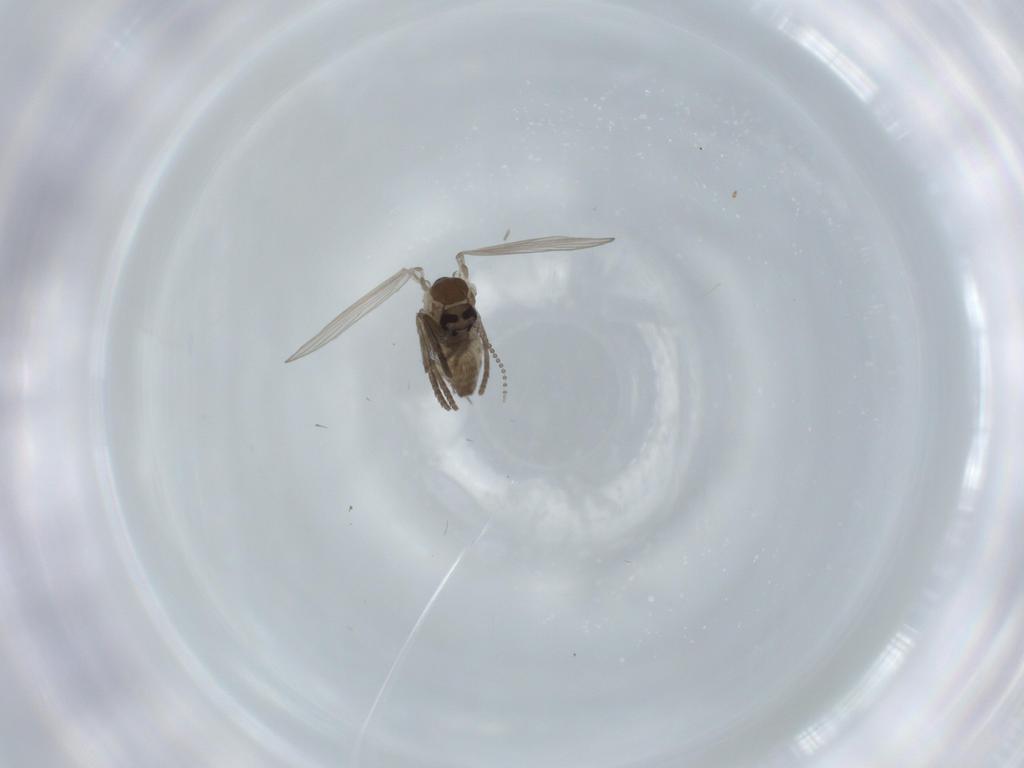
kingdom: Animalia
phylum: Arthropoda
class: Insecta
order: Diptera
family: Psychodidae
